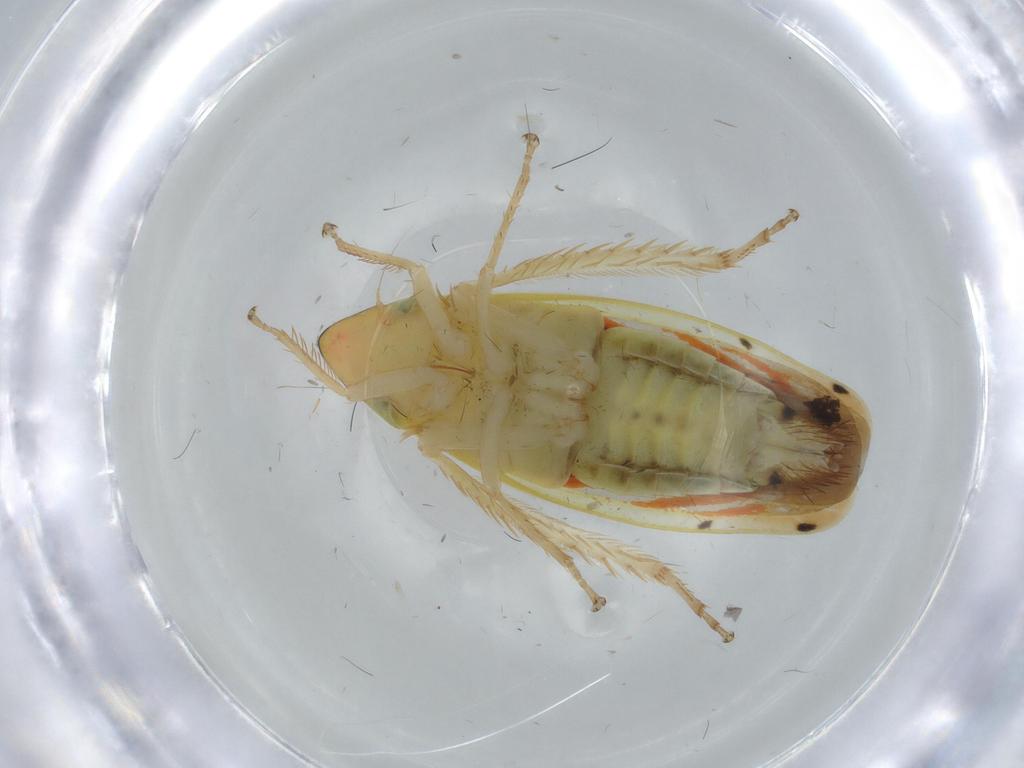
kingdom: Animalia
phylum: Arthropoda
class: Insecta
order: Hemiptera
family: Cicadellidae
